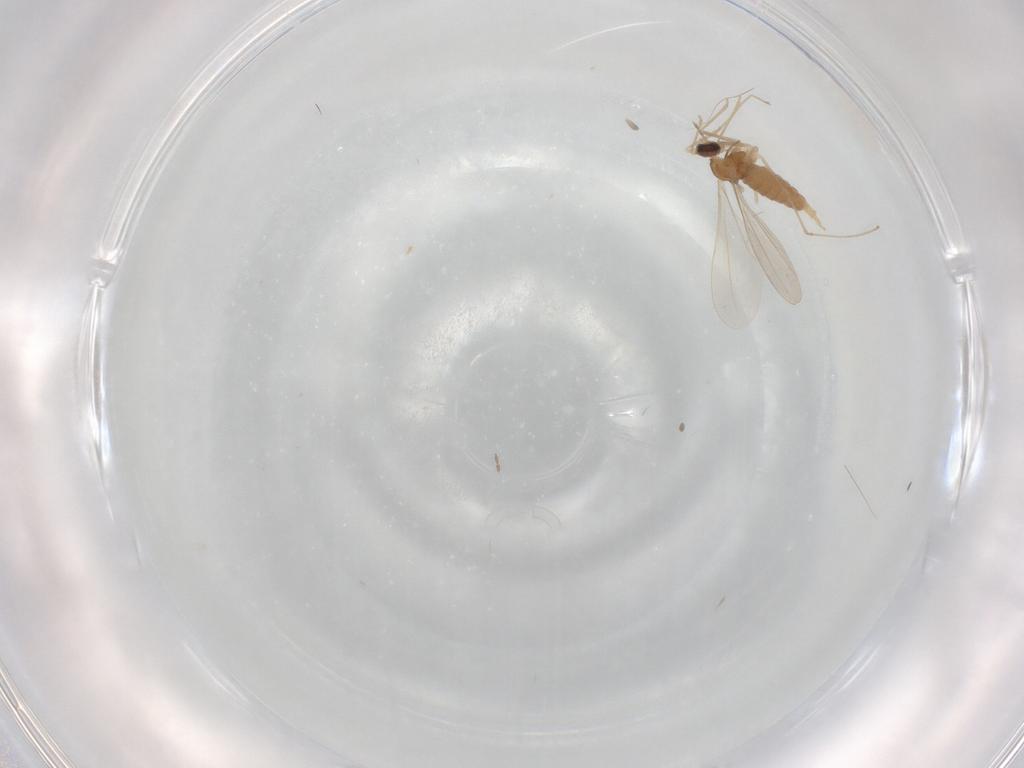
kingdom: Animalia
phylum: Arthropoda
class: Insecta
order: Diptera
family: Cecidomyiidae
